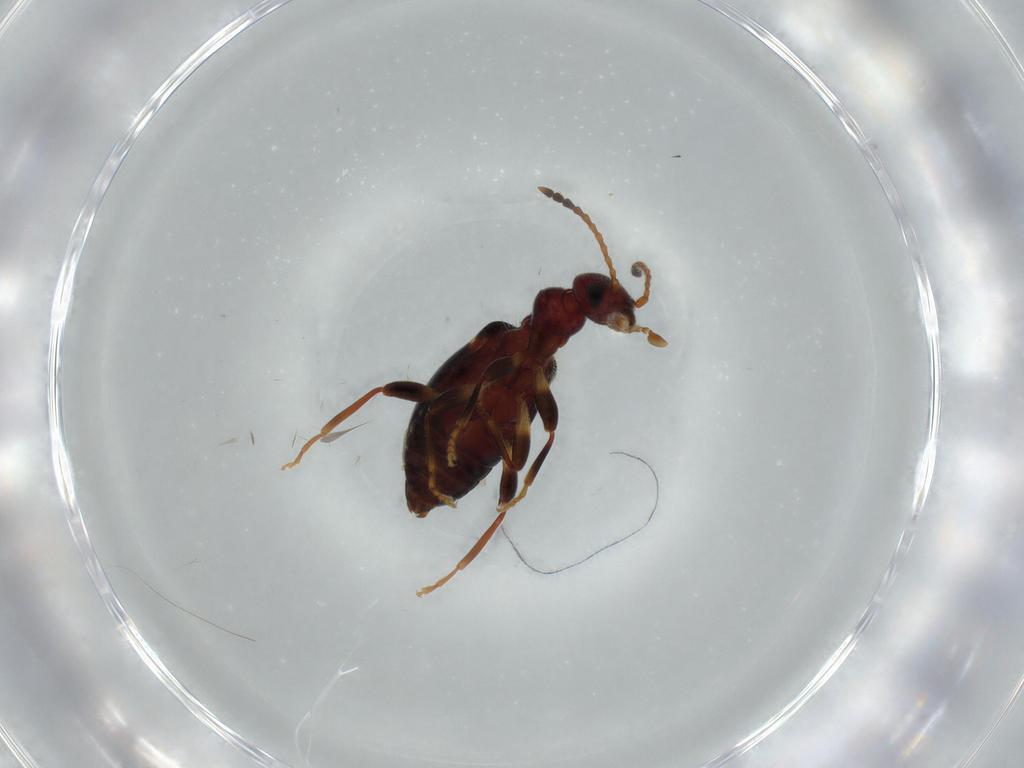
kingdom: Animalia
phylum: Arthropoda
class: Insecta
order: Coleoptera
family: Anthicidae
